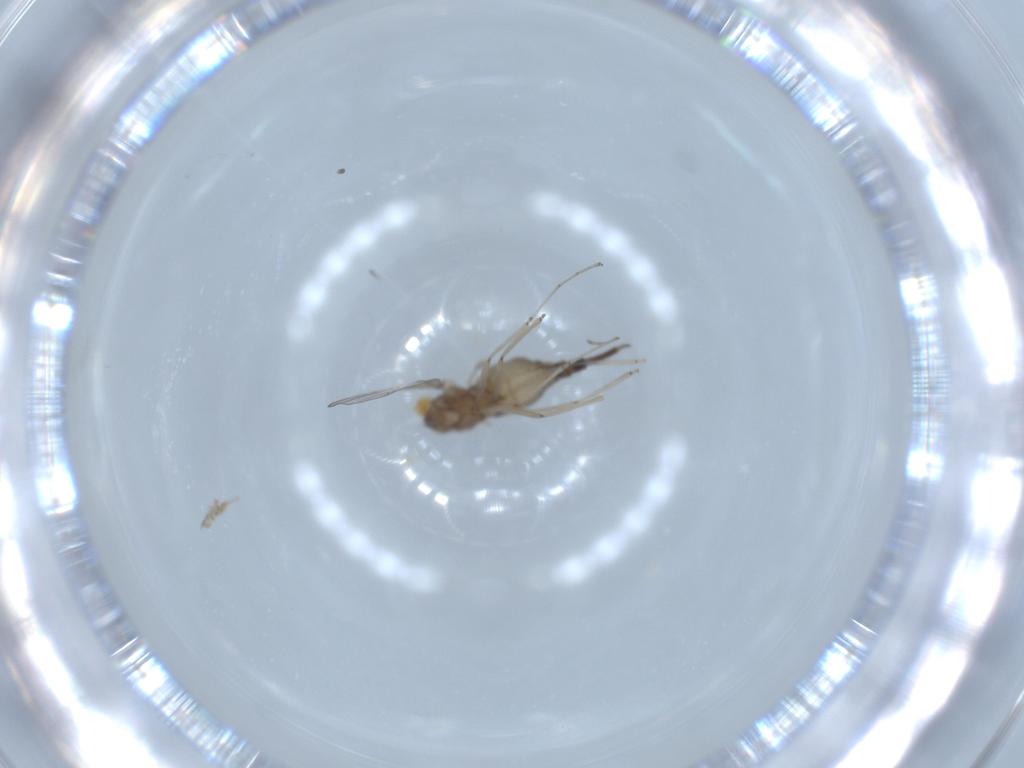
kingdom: Animalia
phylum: Arthropoda
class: Insecta
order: Diptera
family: Cecidomyiidae
